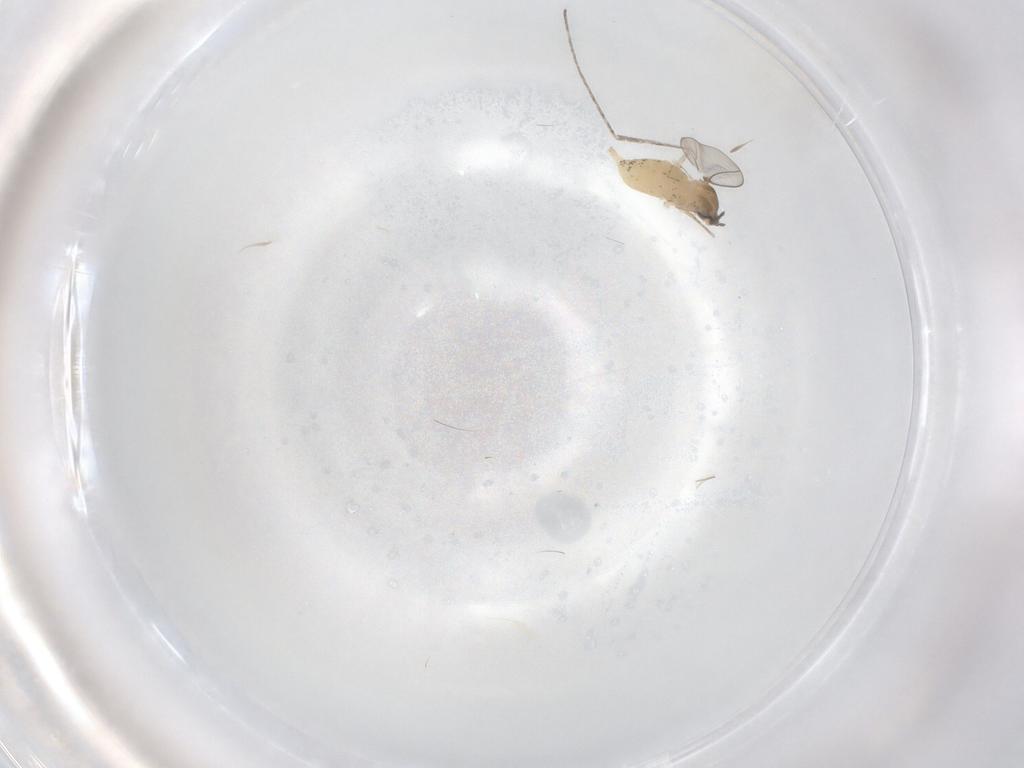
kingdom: Animalia
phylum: Arthropoda
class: Insecta
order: Diptera
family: Cecidomyiidae
